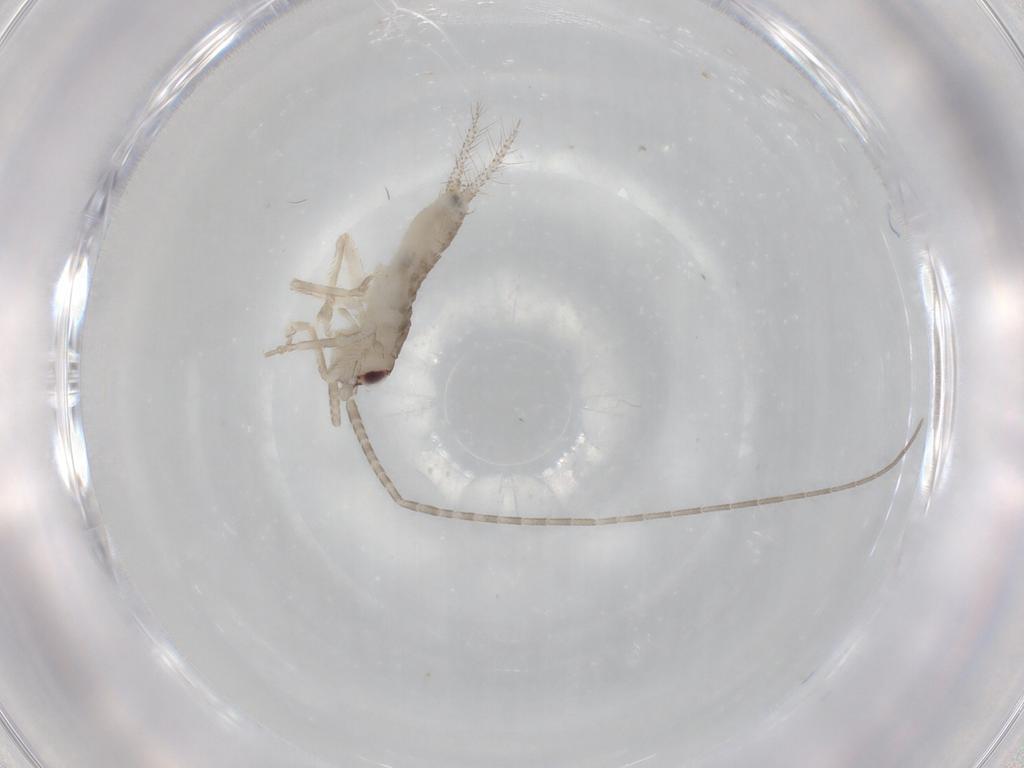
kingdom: Animalia
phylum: Arthropoda
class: Insecta
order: Orthoptera
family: Gryllidae
